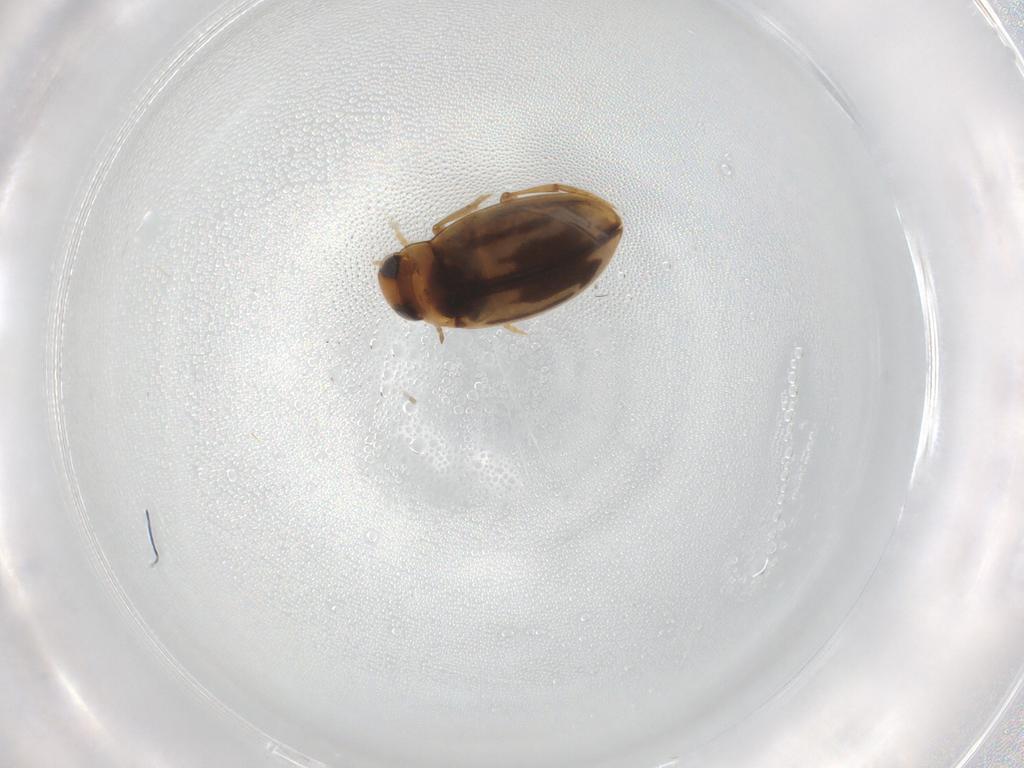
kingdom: Animalia
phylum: Arthropoda
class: Insecta
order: Coleoptera
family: Dytiscidae
